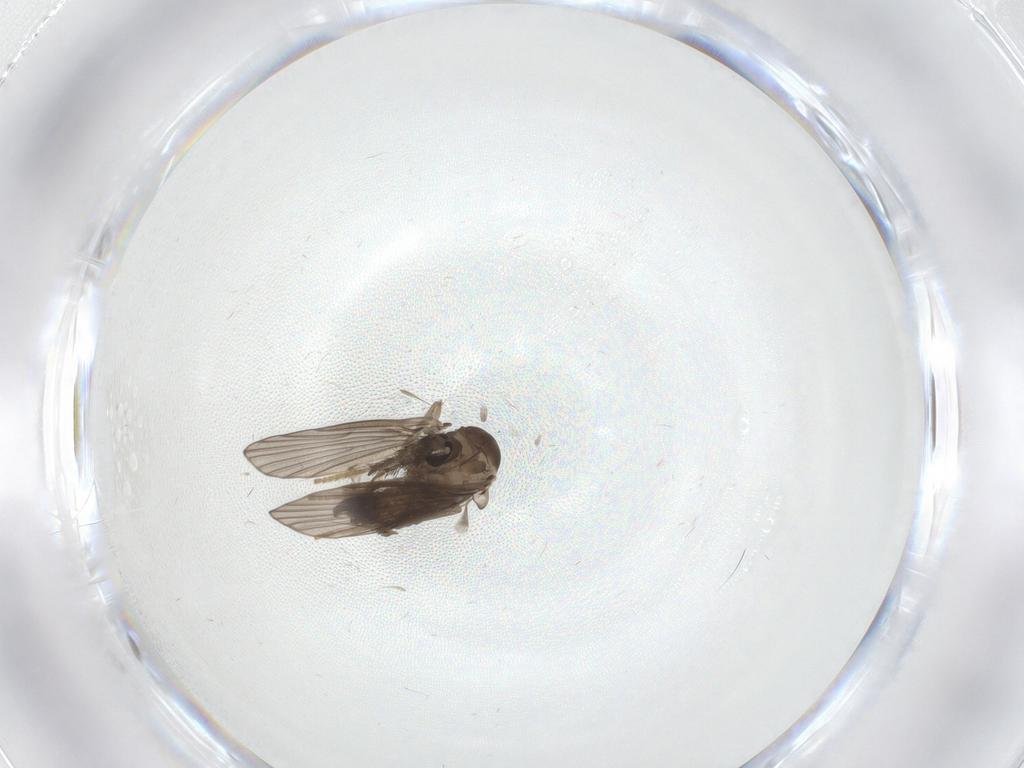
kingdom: Animalia
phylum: Arthropoda
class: Insecta
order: Diptera
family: Psychodidae
